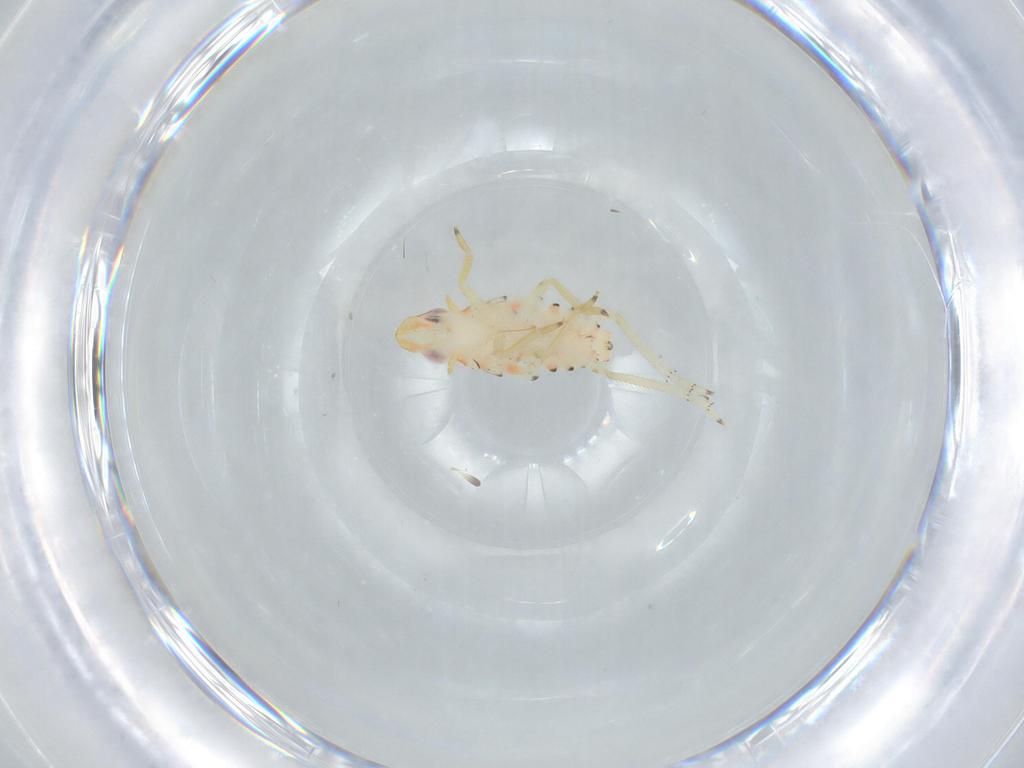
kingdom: Animalia
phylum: Arthropoda
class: Insecta
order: Hemiptera
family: Tropiduchidae
